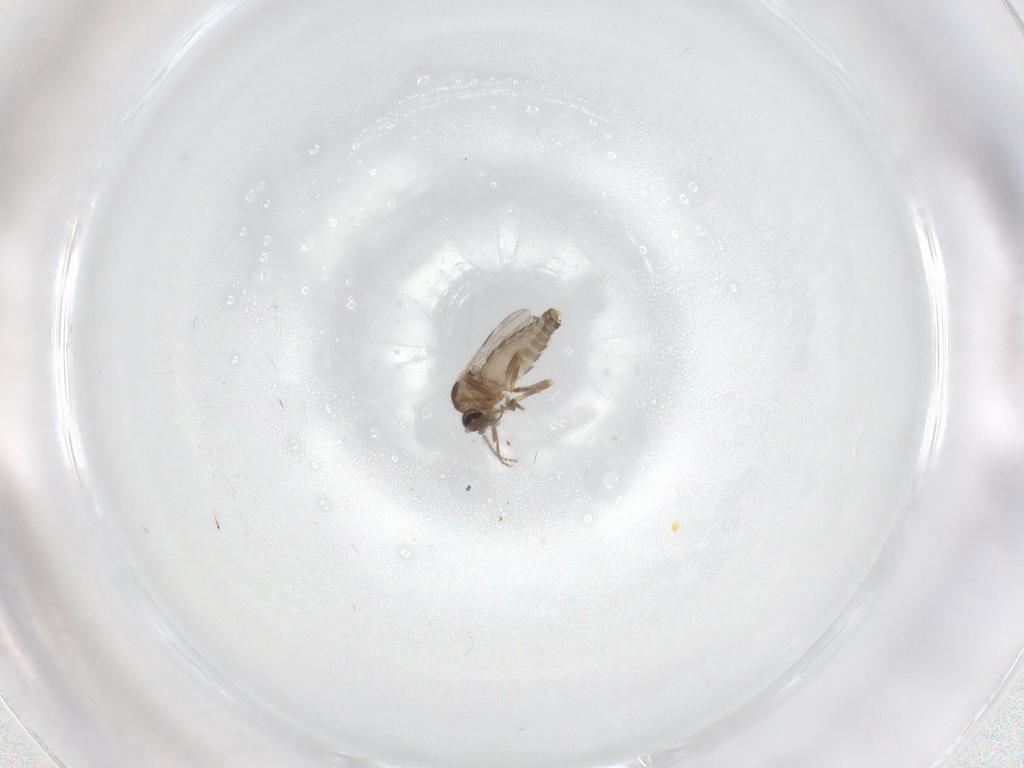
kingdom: Animalia
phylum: Arthropoda
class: Insecta
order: Diptera
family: Ceratopogonidae
